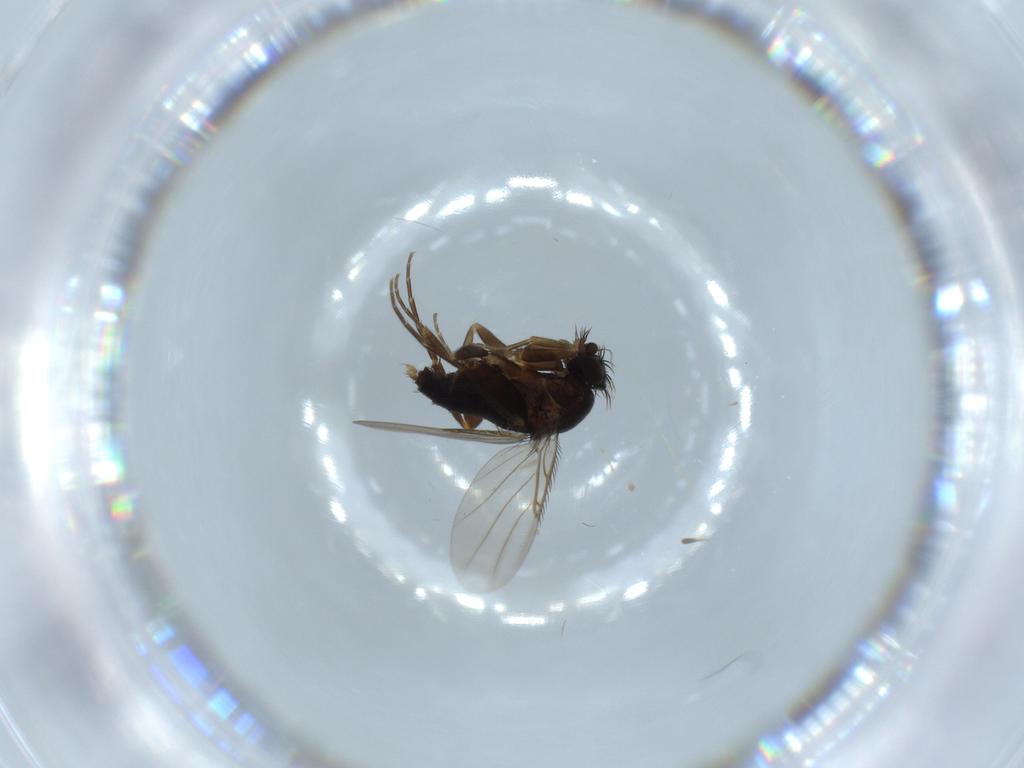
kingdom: Animalia
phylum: Arthropoda
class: Insecta
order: Diptera
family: Phoridae
